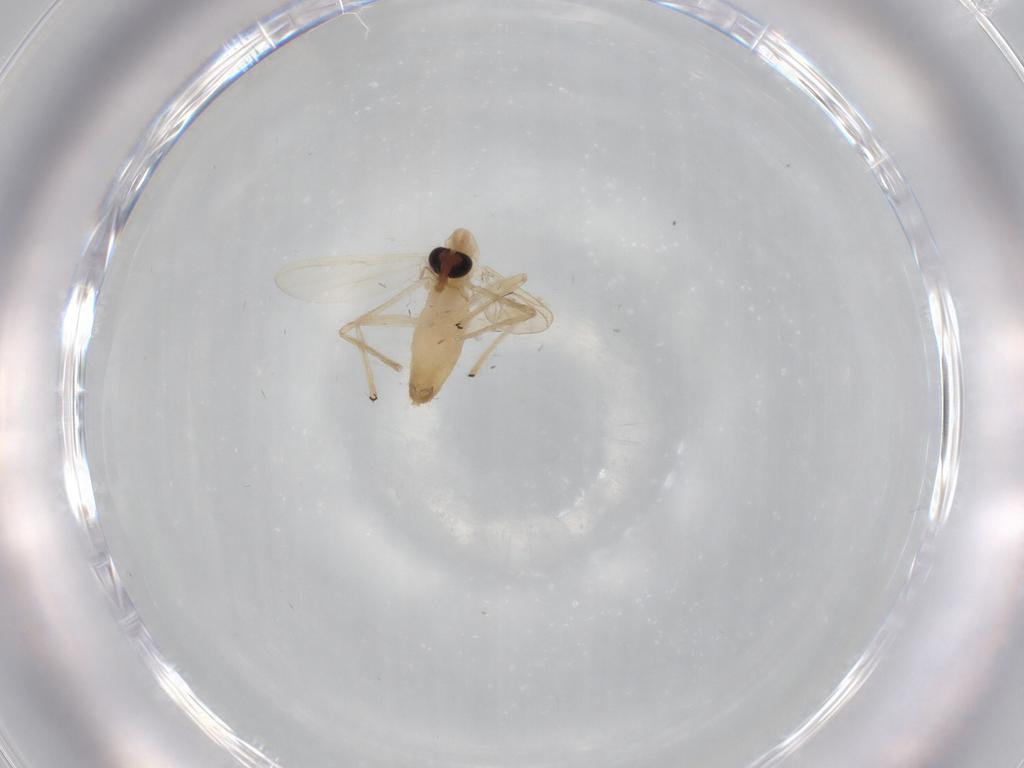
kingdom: Animalia
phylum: Arthropoda
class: Insecta
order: Diptera
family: Chironomidae
